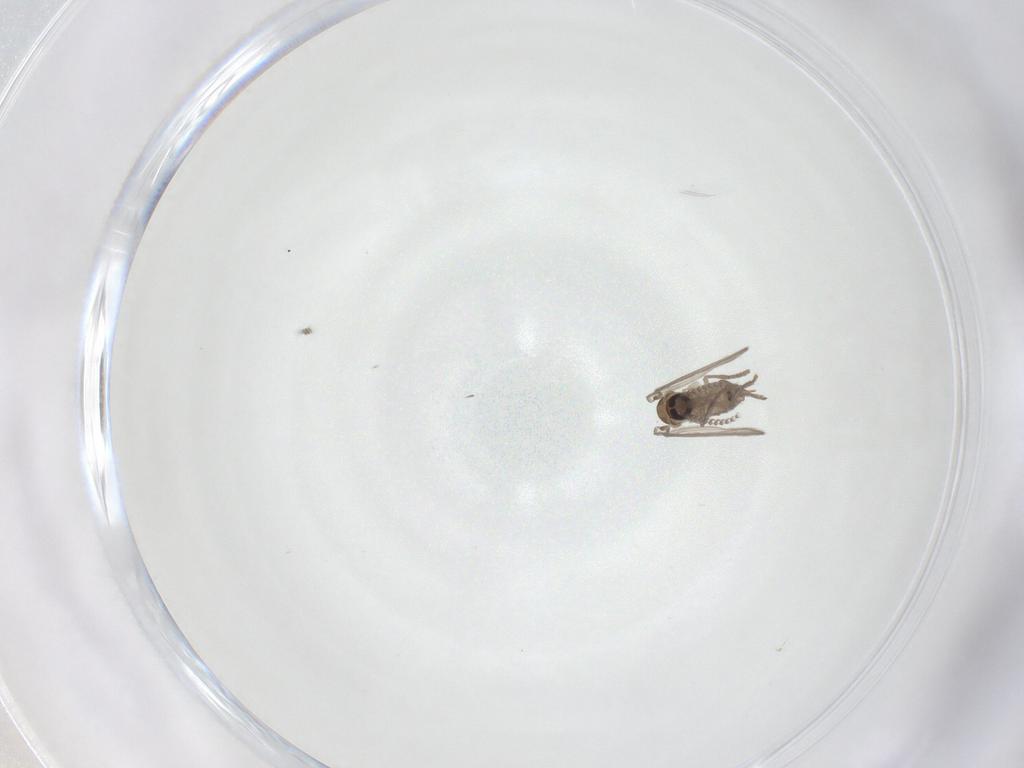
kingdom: Animalia
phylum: Arthropoda
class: Insecta
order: Diptera
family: Psychodidae
